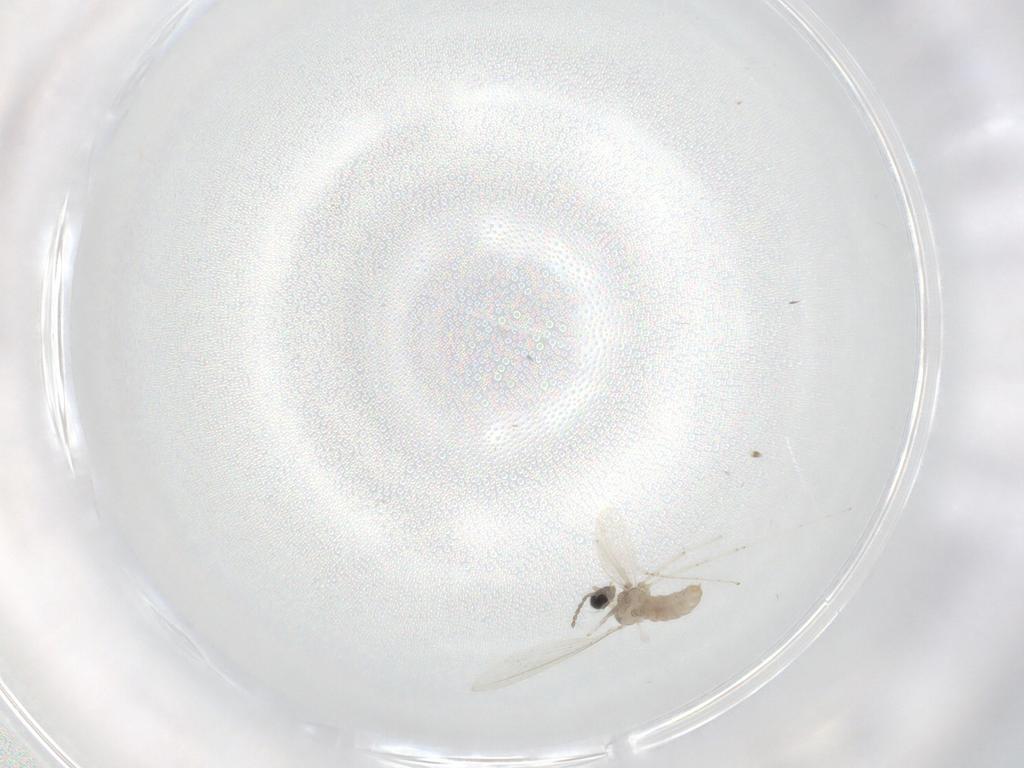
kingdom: Animalia
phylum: Arthropoda
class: Insecta
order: Diptera
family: Cecidomyiidae
